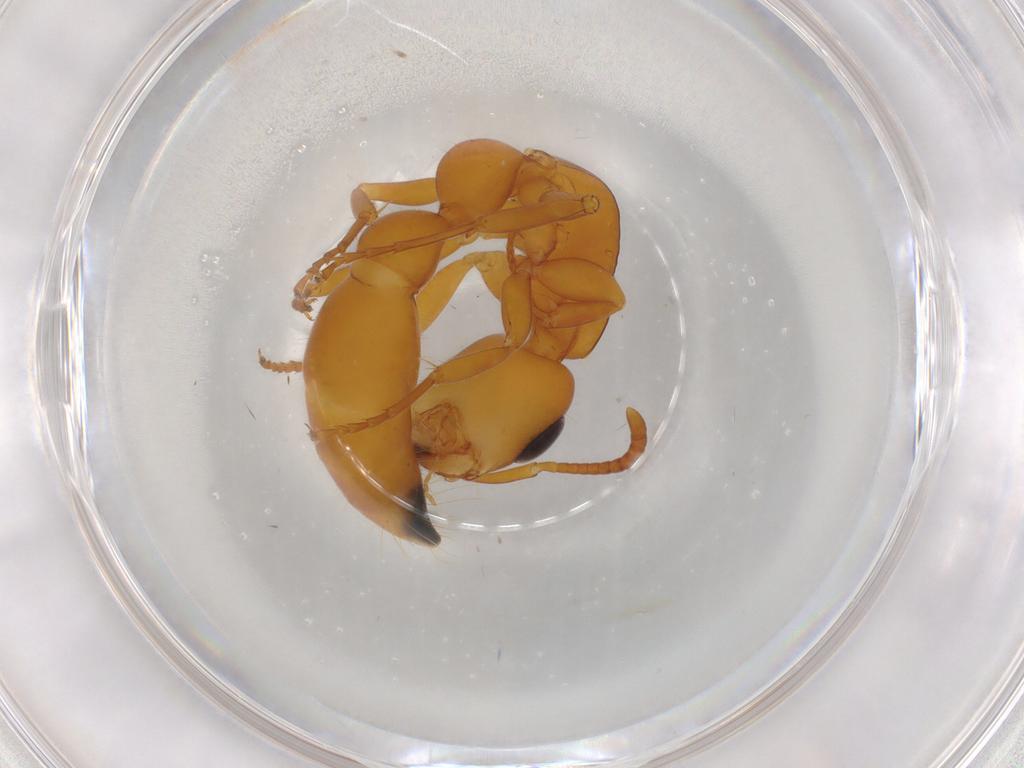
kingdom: Animalia
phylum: Arthropoda
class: Insecta
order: Hymenoptera
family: Formicidae
